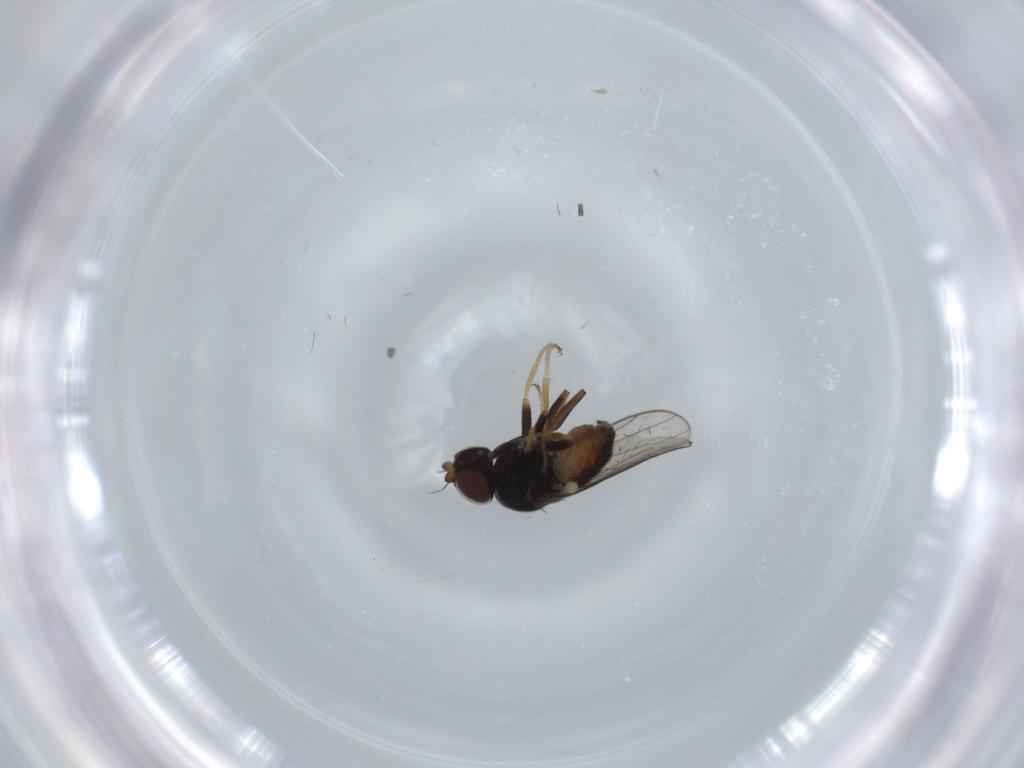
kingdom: Animalia
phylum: Arthropoda
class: Insecta
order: Diptera
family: Chloropidae
